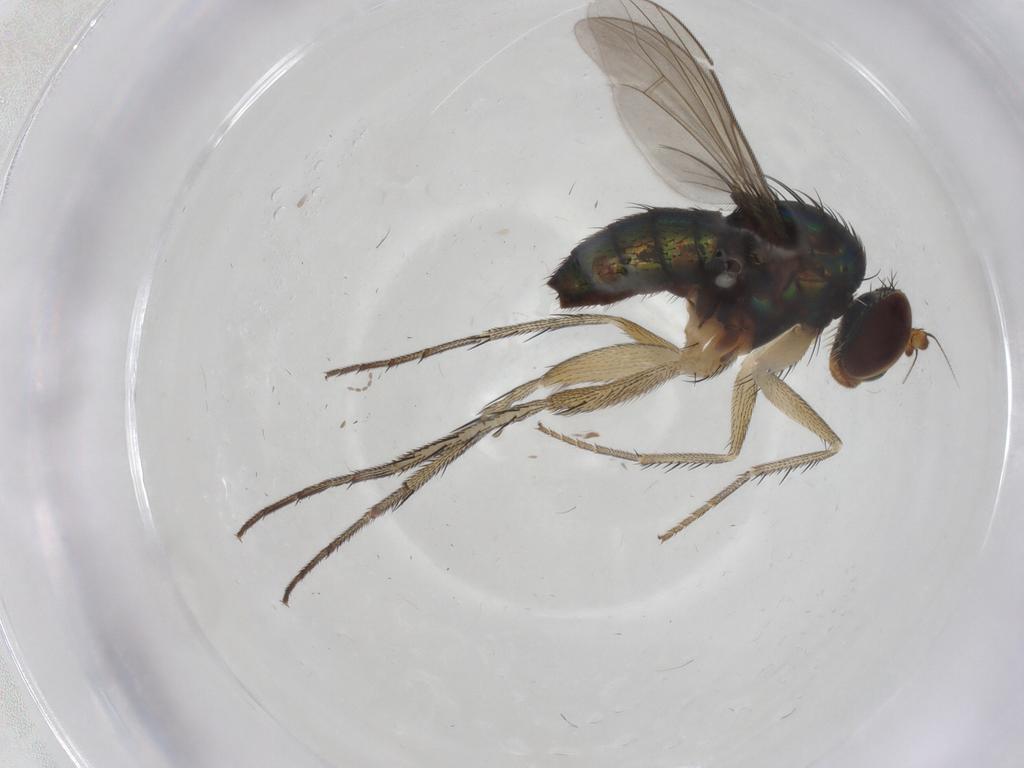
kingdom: Animalia
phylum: Arthropoda
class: Insecta
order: Diptera
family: Dolichopodidae
